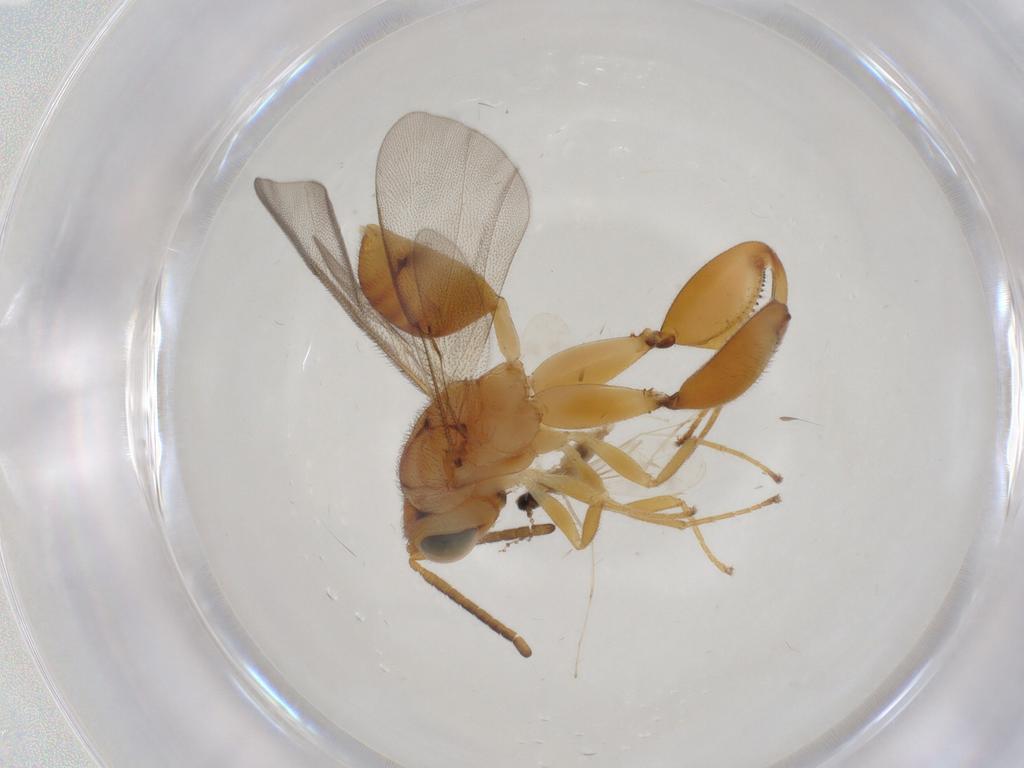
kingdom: Animalia
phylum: Arthropoda
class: Insecta
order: Hymenoptera
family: Chalcididae
